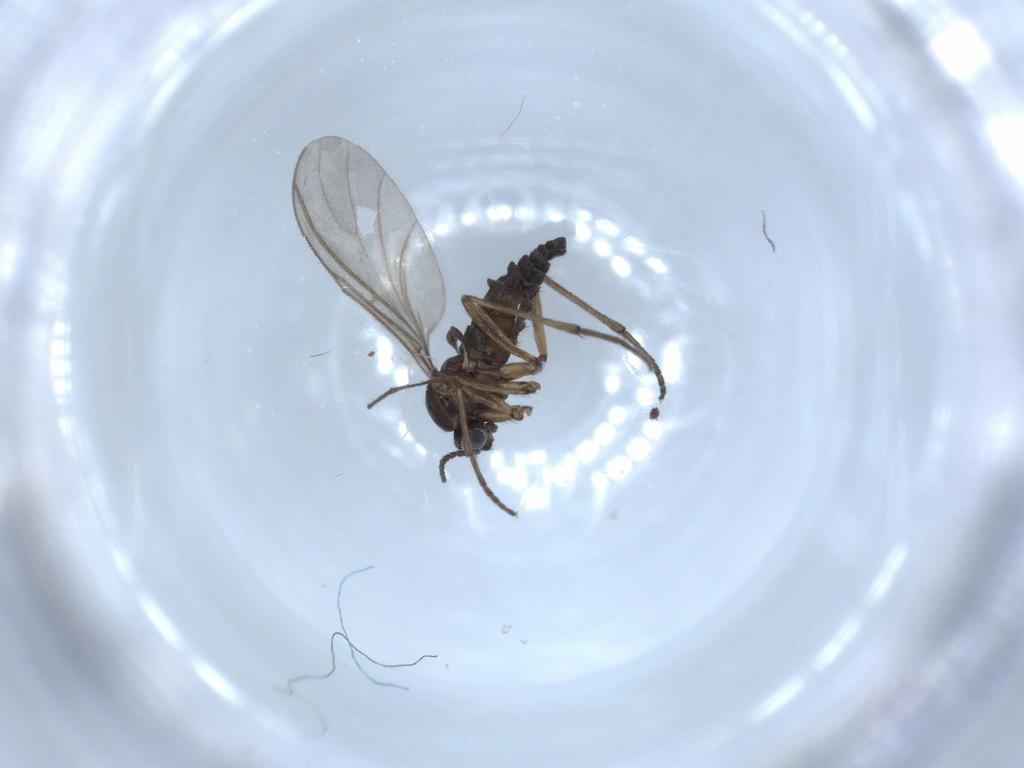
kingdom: Animalia
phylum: Arthropoda
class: Insecta
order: Diptera
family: Sciaridae
